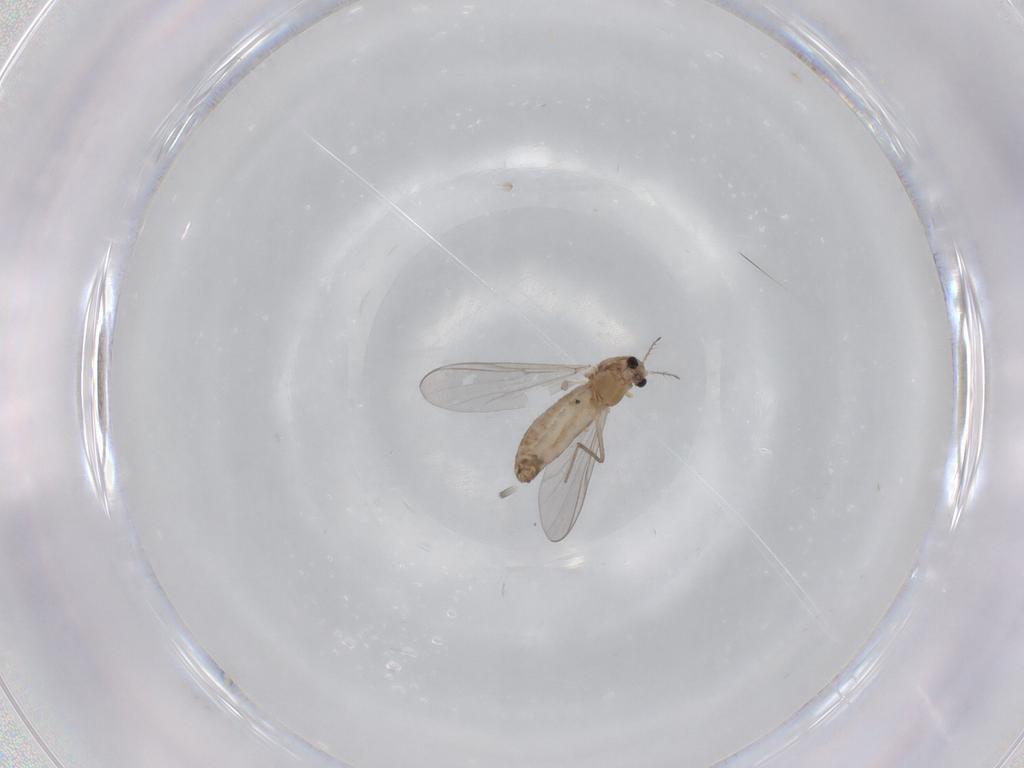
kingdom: Animalia
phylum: Arthropoda
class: Insecta
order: Diptera
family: Chironomidae
